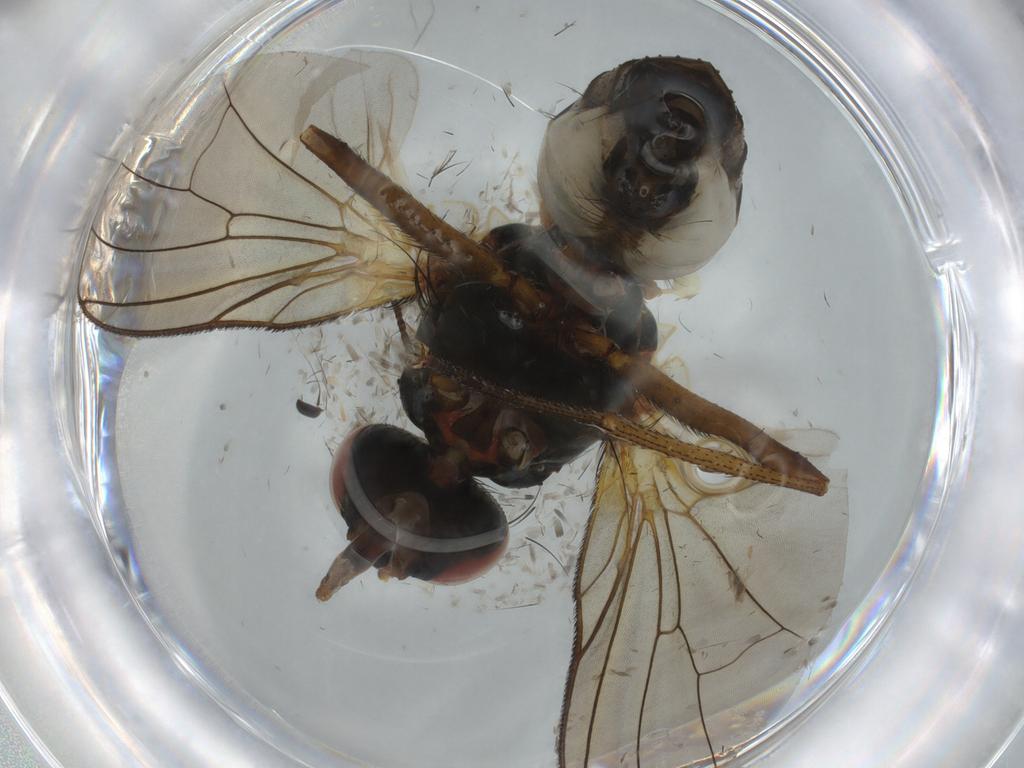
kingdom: Animalia
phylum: Arthropoda
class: Insecta
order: Diptera
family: Anthomyiidae
